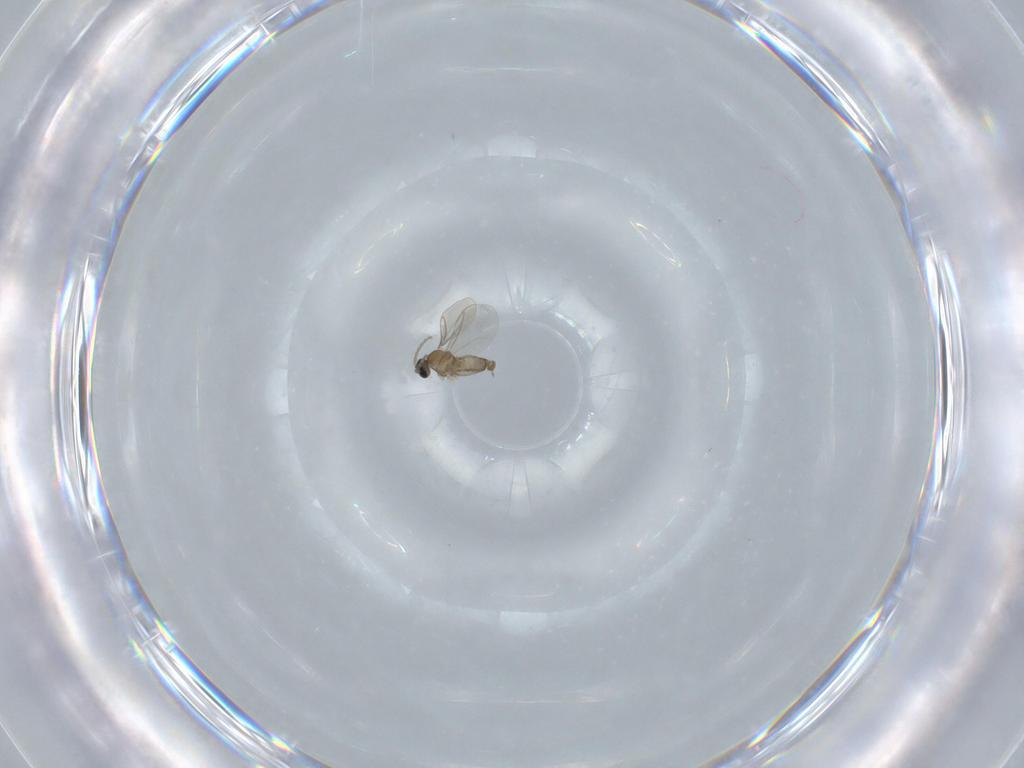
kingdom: Animalia
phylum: Arthropoda
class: Insecta
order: Diptera
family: Cecidomyiidae
